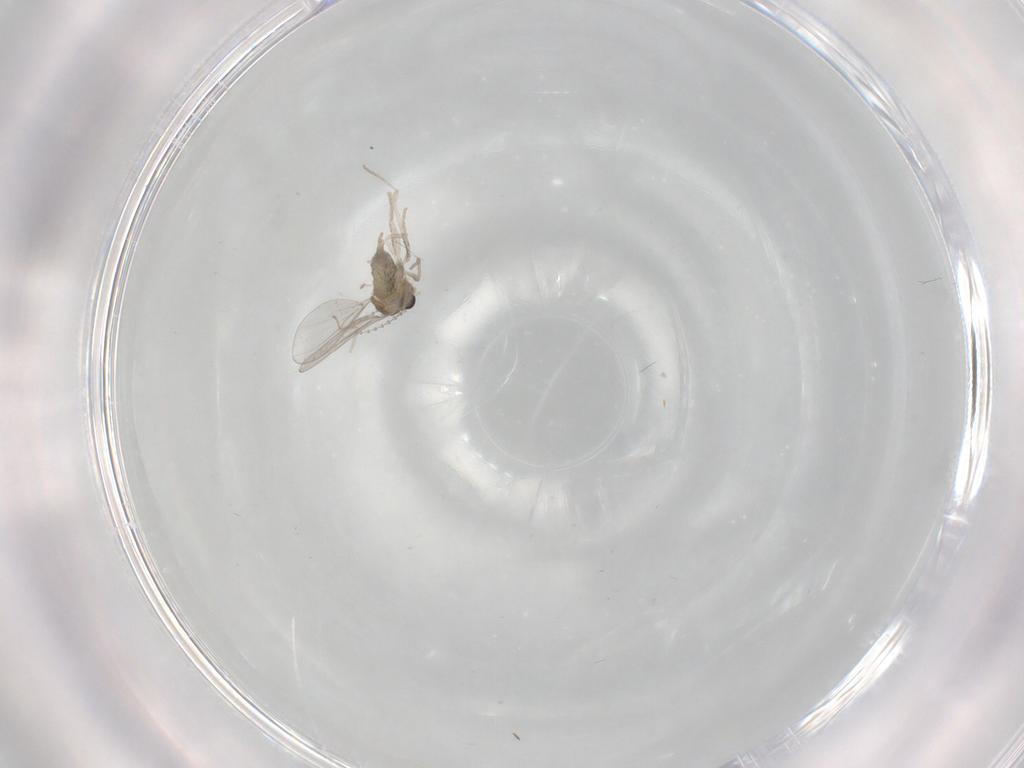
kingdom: Animalia
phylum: Arthropoda
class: Insecta
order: Diptera
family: Cecidomyiidae
